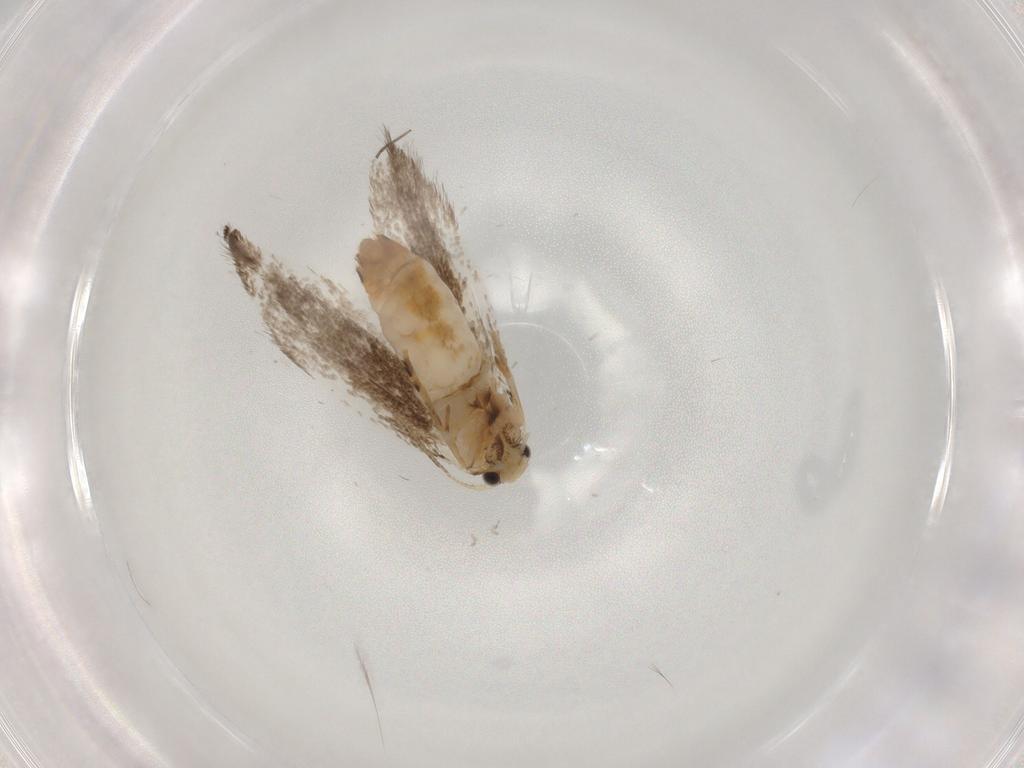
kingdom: Animalia
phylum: Arthropoda
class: Insecta
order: Lepidoptera
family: Incurvariidae
